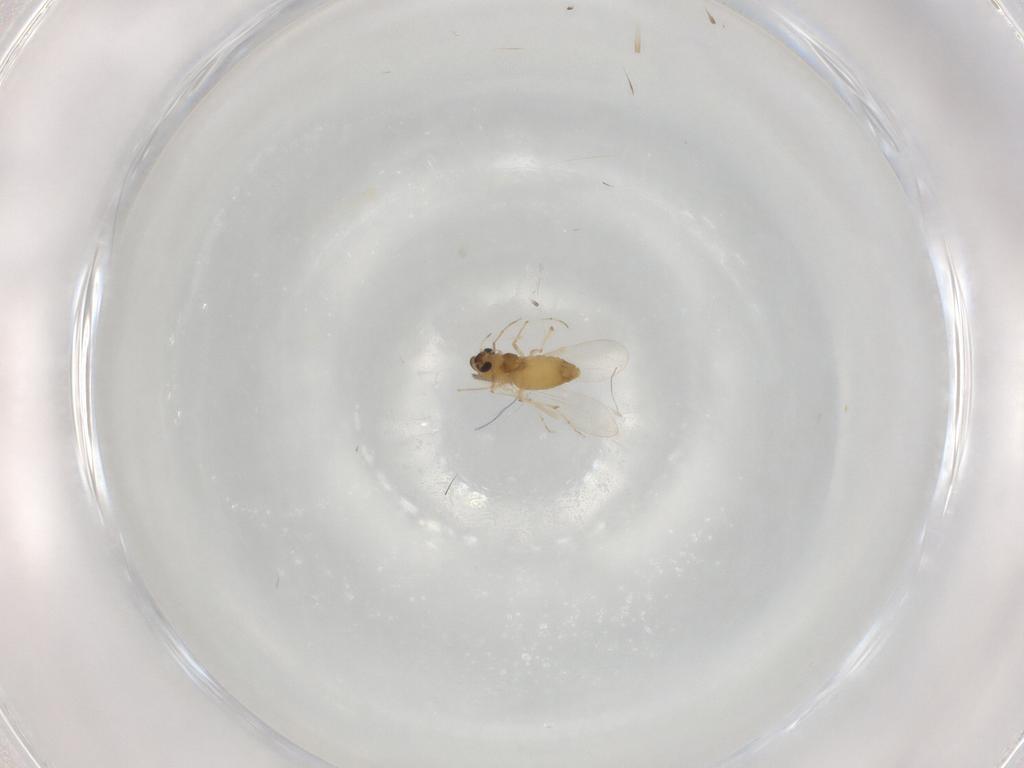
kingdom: Animalia
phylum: Arthropoda
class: Insecta
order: Diptera
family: Chironomidae
